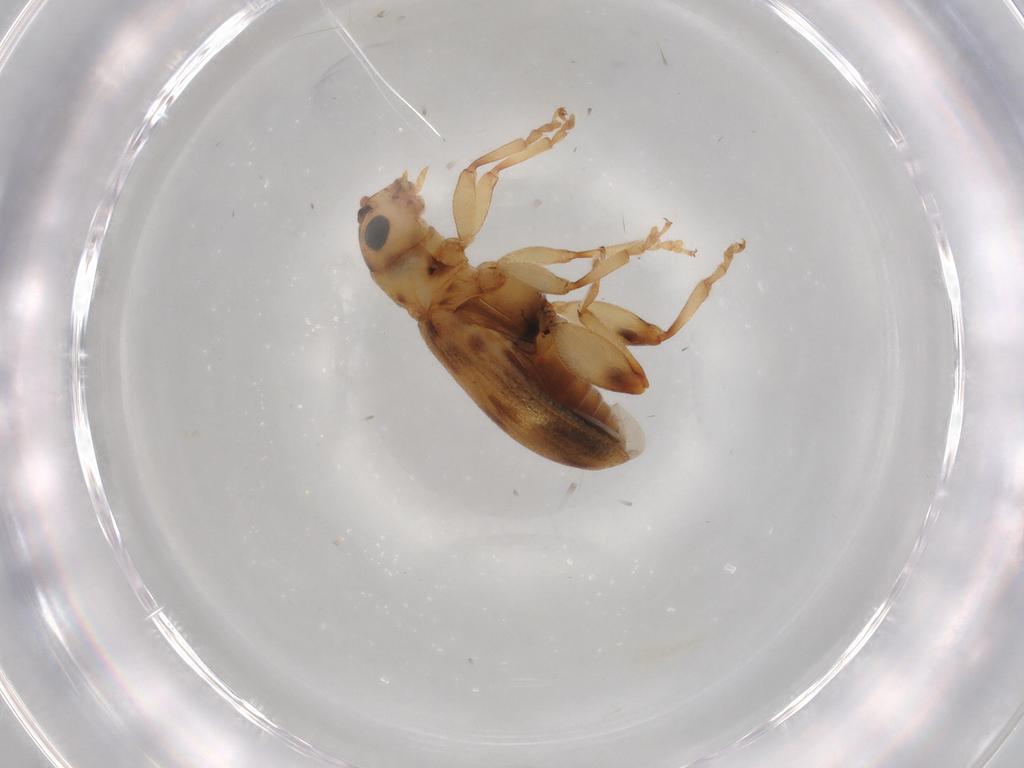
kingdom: Animalia
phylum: Arthropoda
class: Insecta
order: Coleoptera
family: Chrysomelidae
